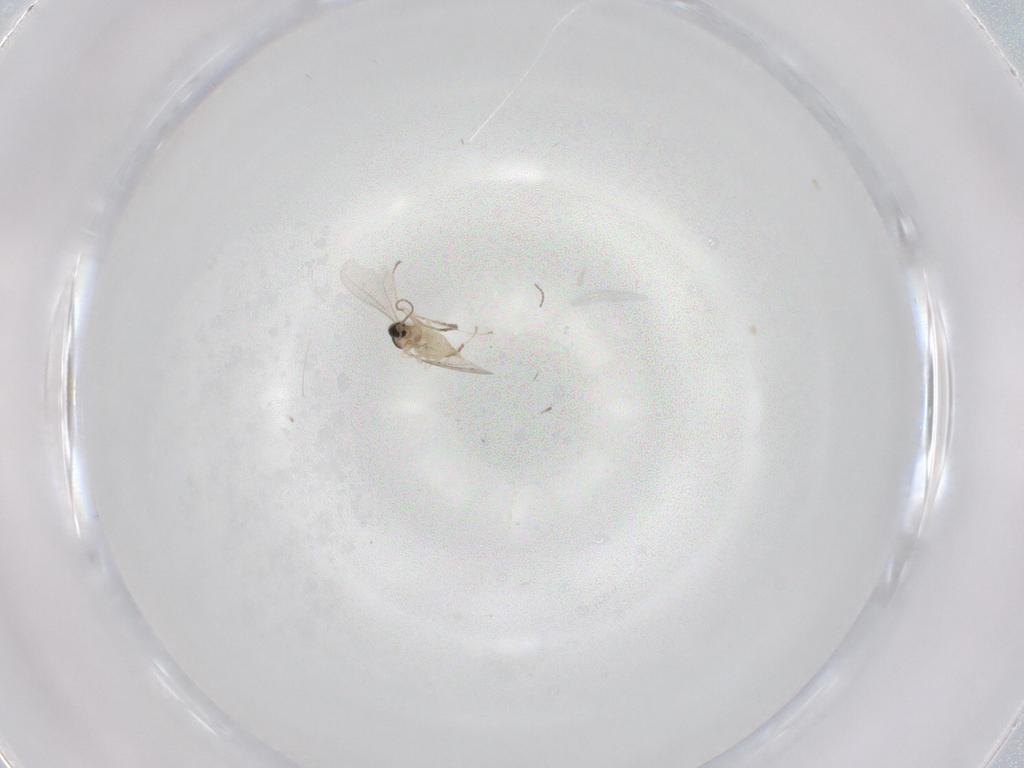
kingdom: Animalia
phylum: Arthropoda
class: Insecta
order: Diptera
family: Cecidomyiidae
